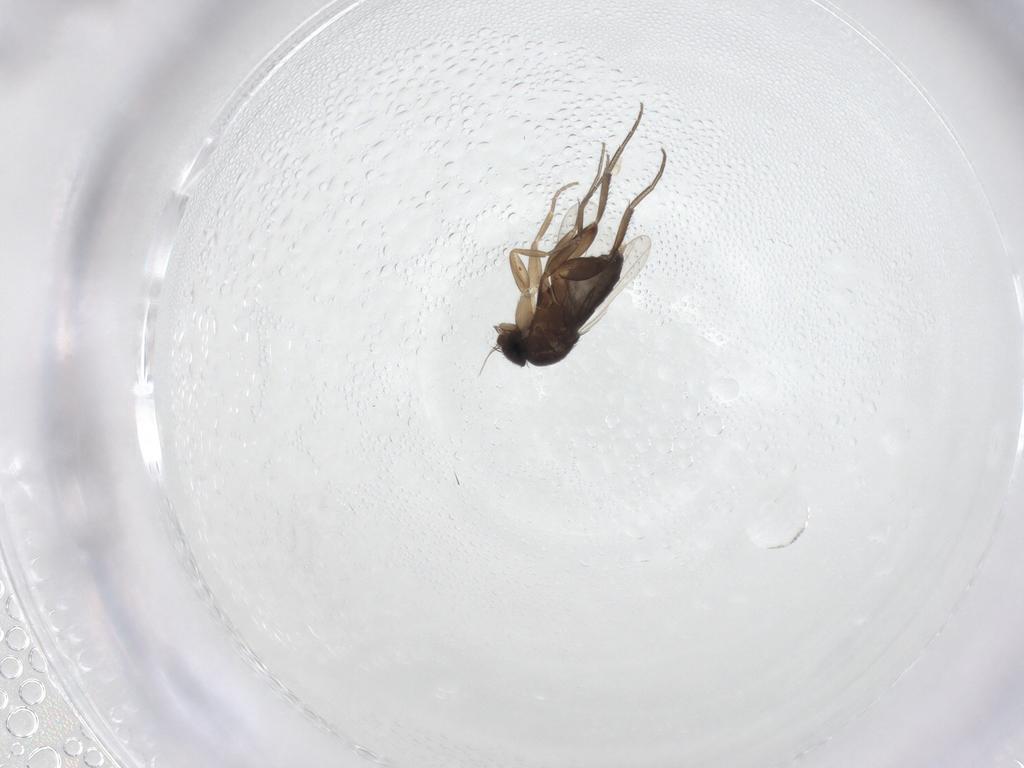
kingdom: Animalia
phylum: Arthropoda
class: Insecta
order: Diptera
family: Phoridae
